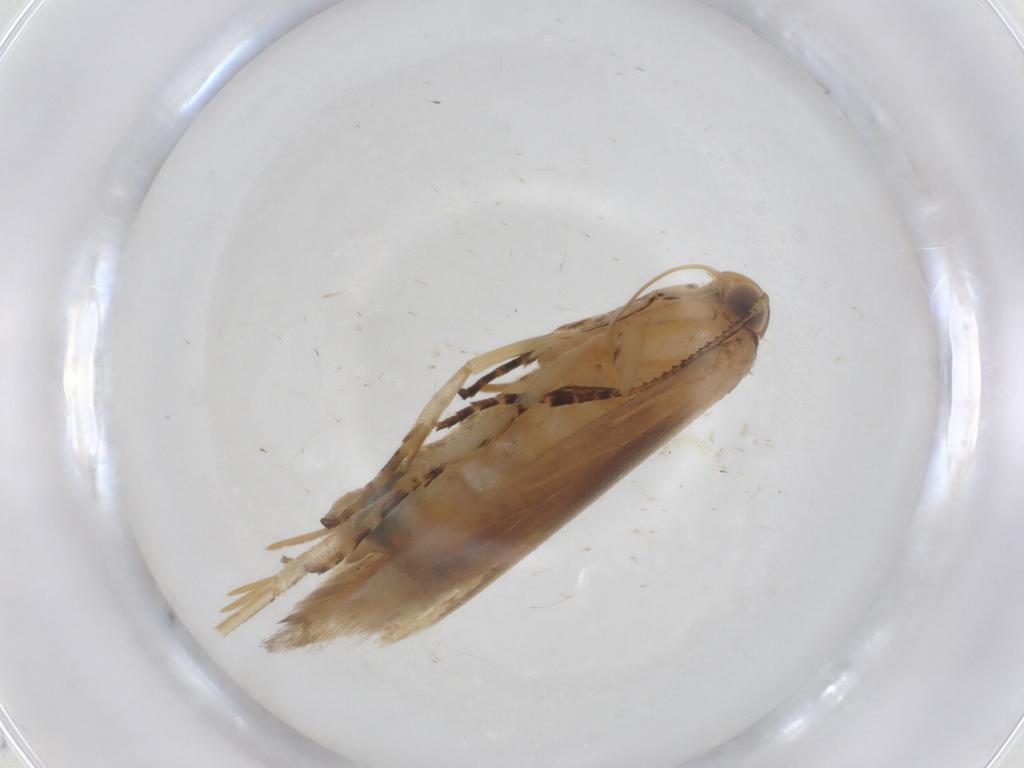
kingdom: Animalia
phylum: Arthropoda
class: Insecta
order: Lepidoptera
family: Gelechiidae
